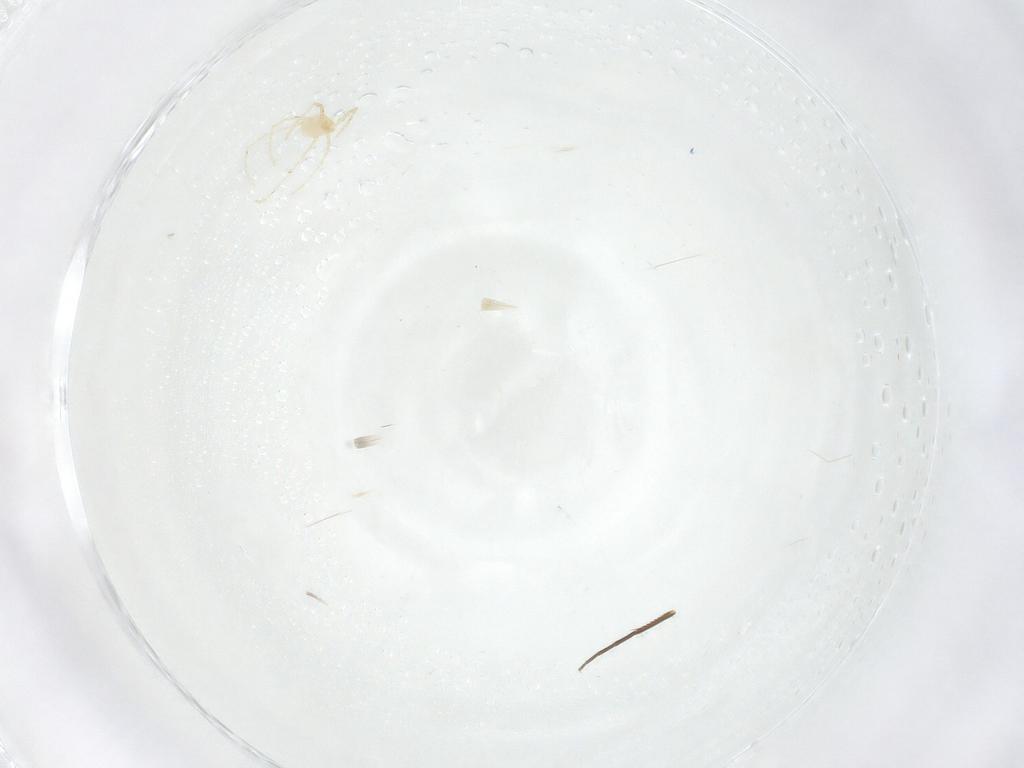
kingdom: Animalia
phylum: Arthropoda
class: Arachnida
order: Trombidiformes
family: Erythraeidae
